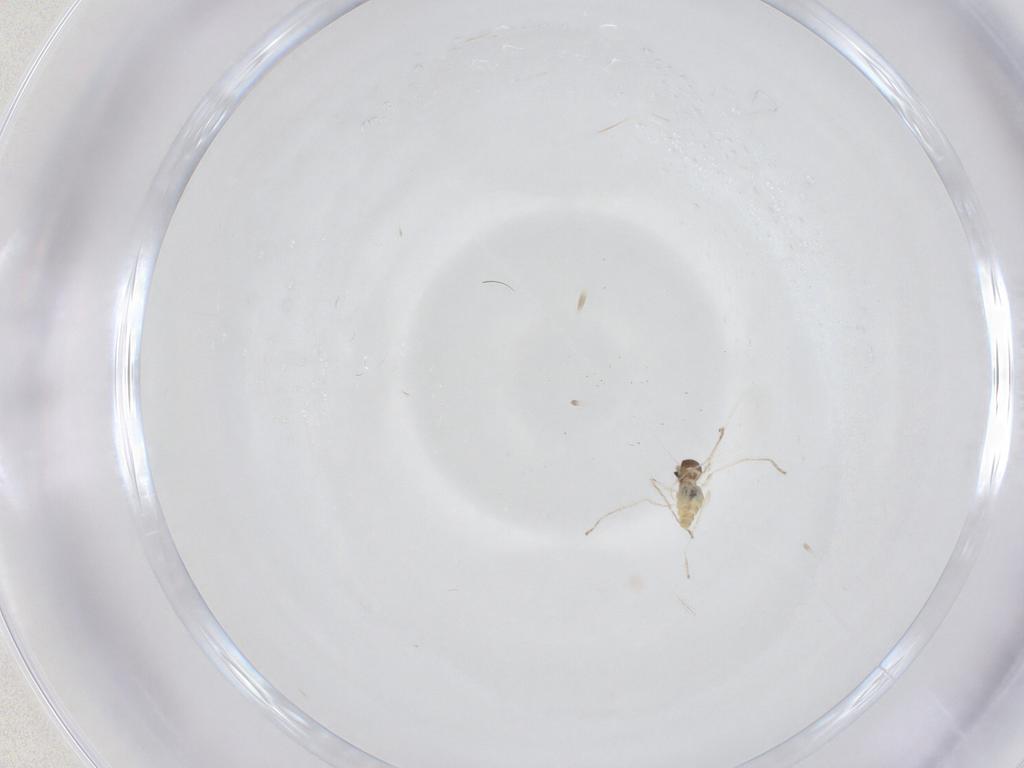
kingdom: Animalia
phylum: Arthropoda
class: Insecta
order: Diptera
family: Cecidomyiidae
